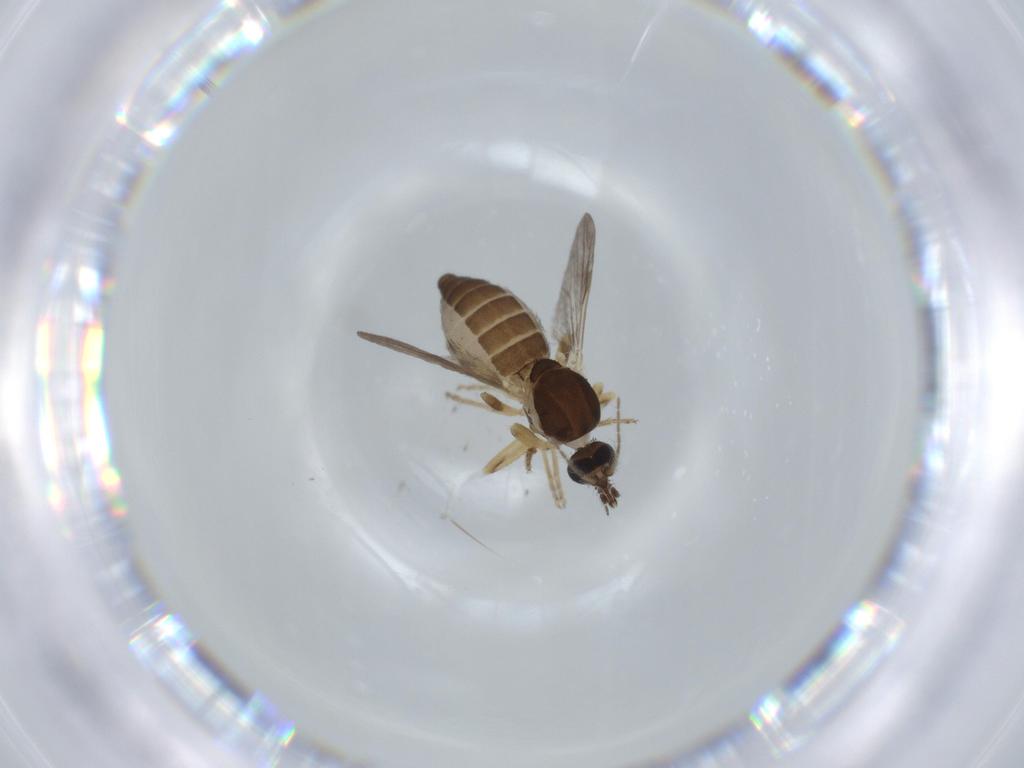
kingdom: Animalia
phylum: Arthropoda
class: Insecta
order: Diptera
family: Ceratopogonidae
